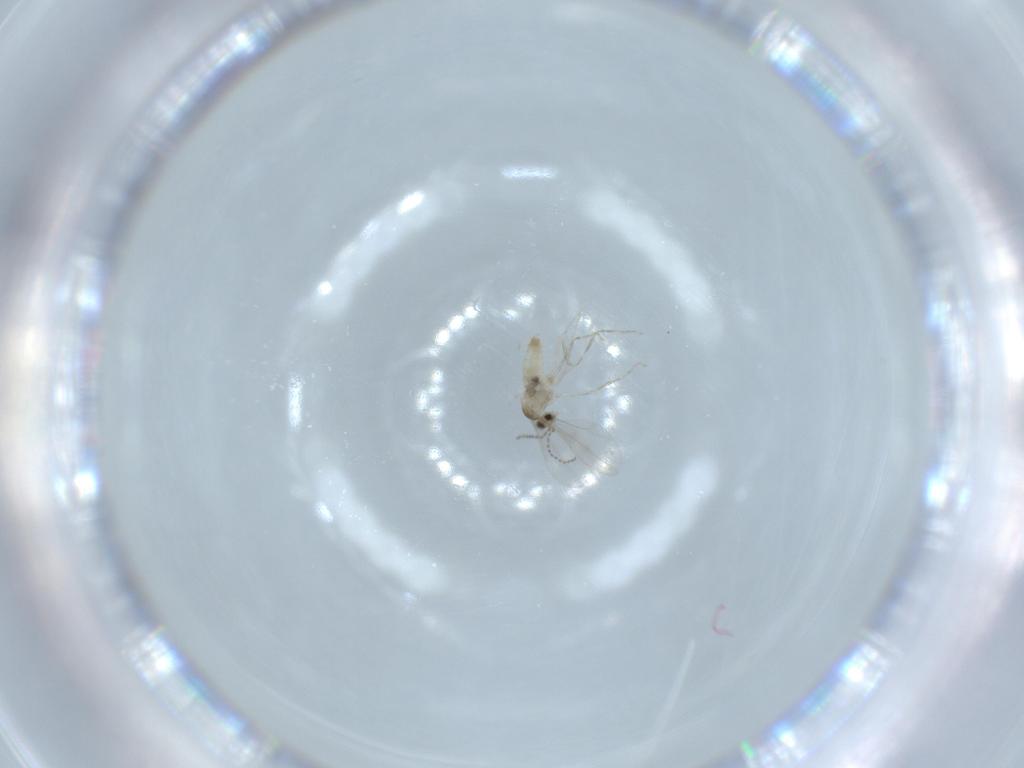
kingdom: Animalia
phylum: Arthropoda
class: Insecta
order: Diptera
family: Cecidomyiidae
